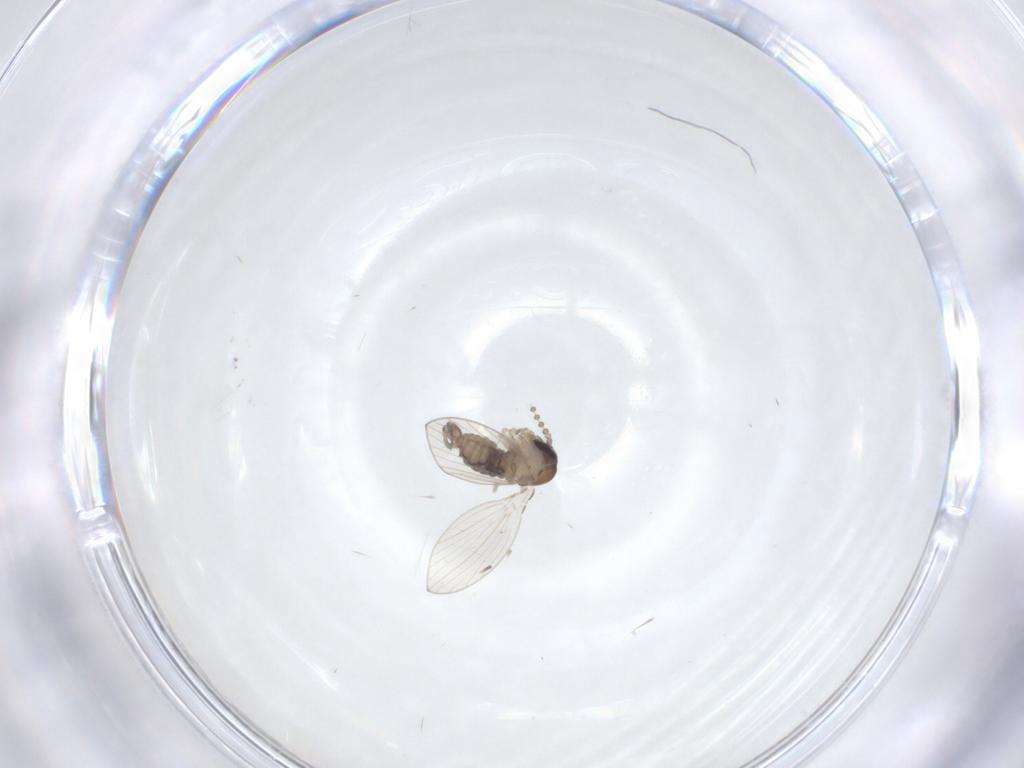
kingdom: Animalia
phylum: Arthropoda
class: Insecta
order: Diptera
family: Psychodidae
